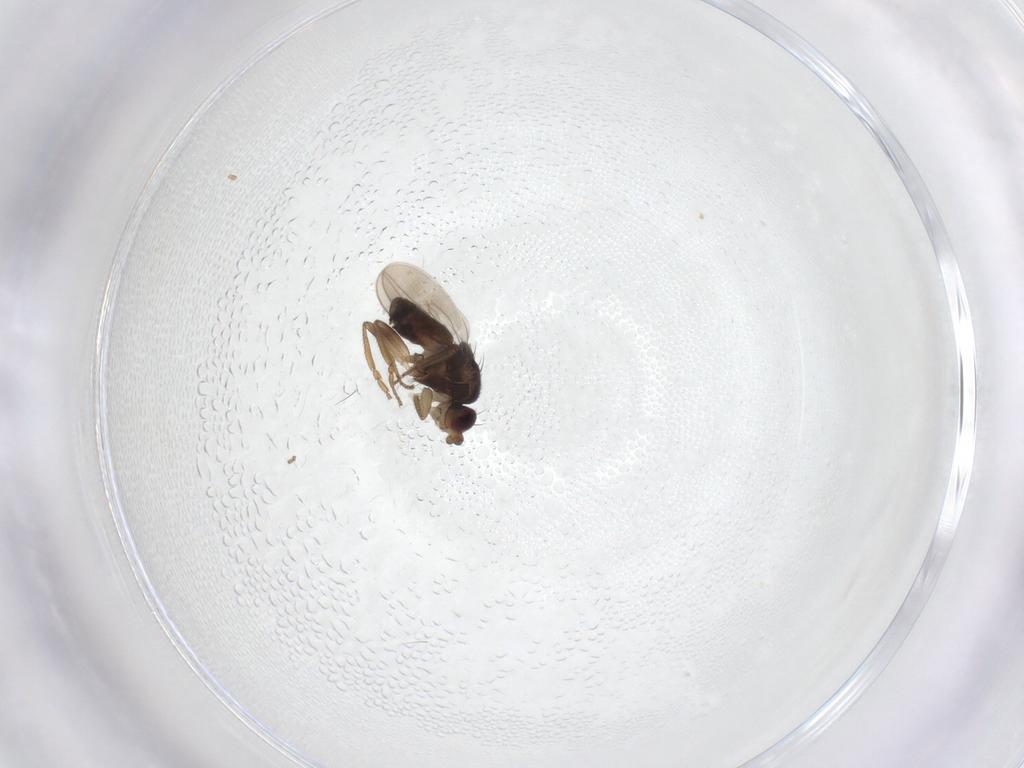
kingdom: Animalia
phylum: Arthropoda
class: Insecta
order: Diptera
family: Sphaeroceridae
